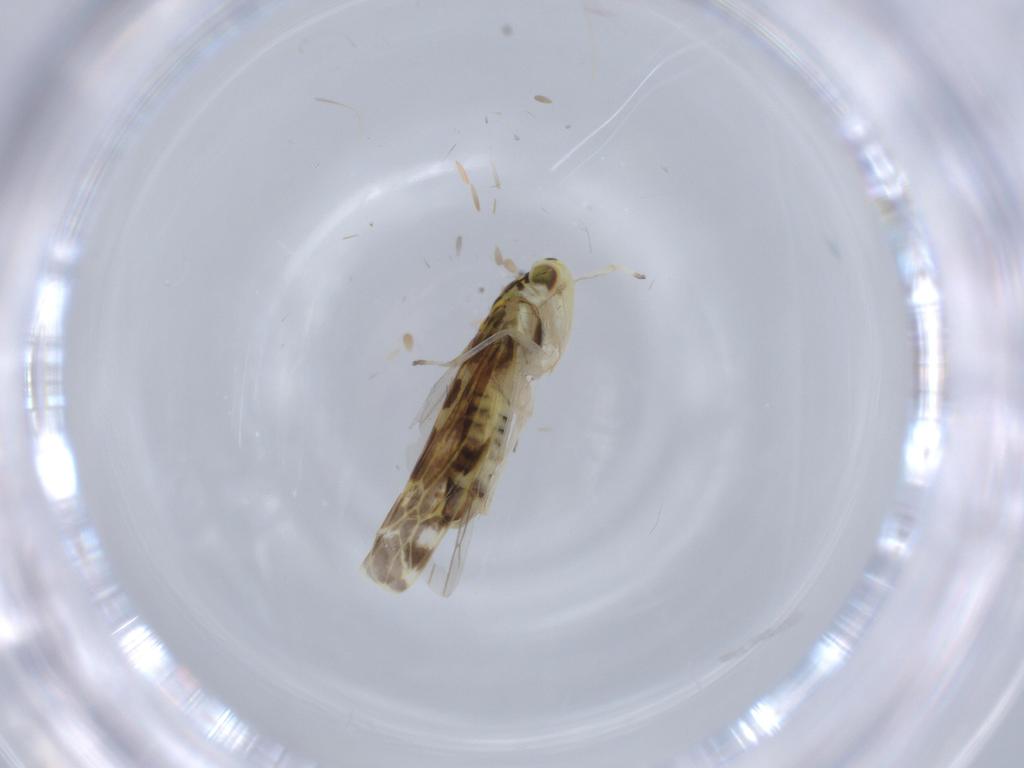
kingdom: Animalia
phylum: Arthropoda
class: Insecta
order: Hemiptera
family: Cicadellidae
